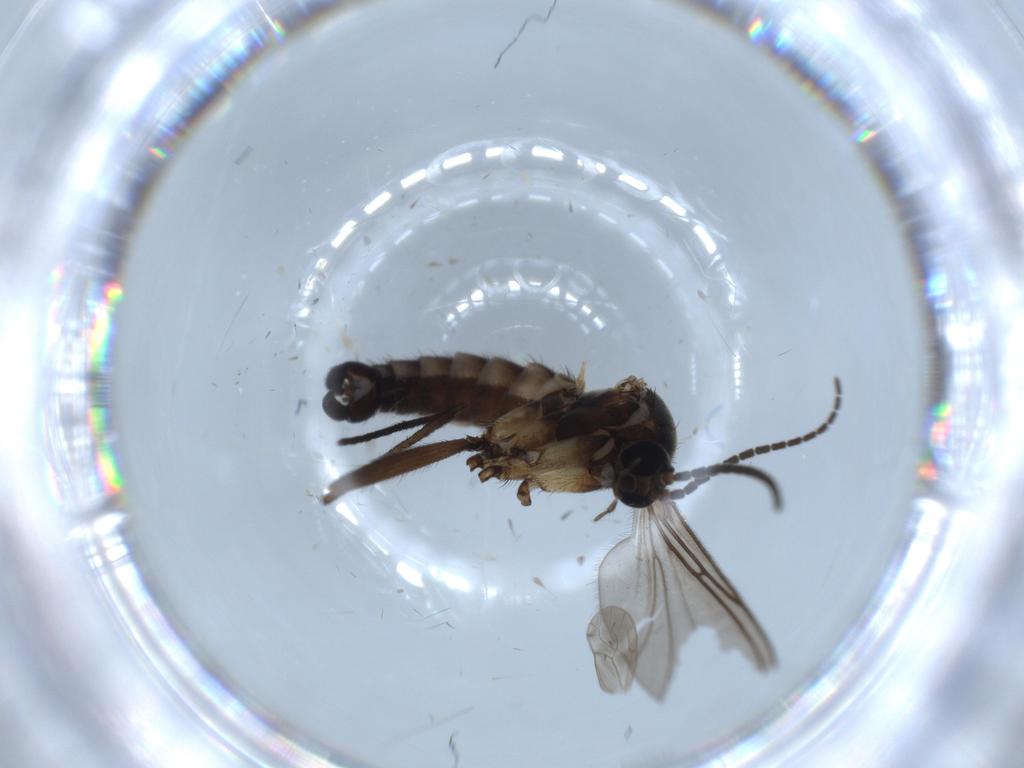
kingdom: Animalia
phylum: Arthropoda
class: Insecta
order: Diptera
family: Sciaridae
